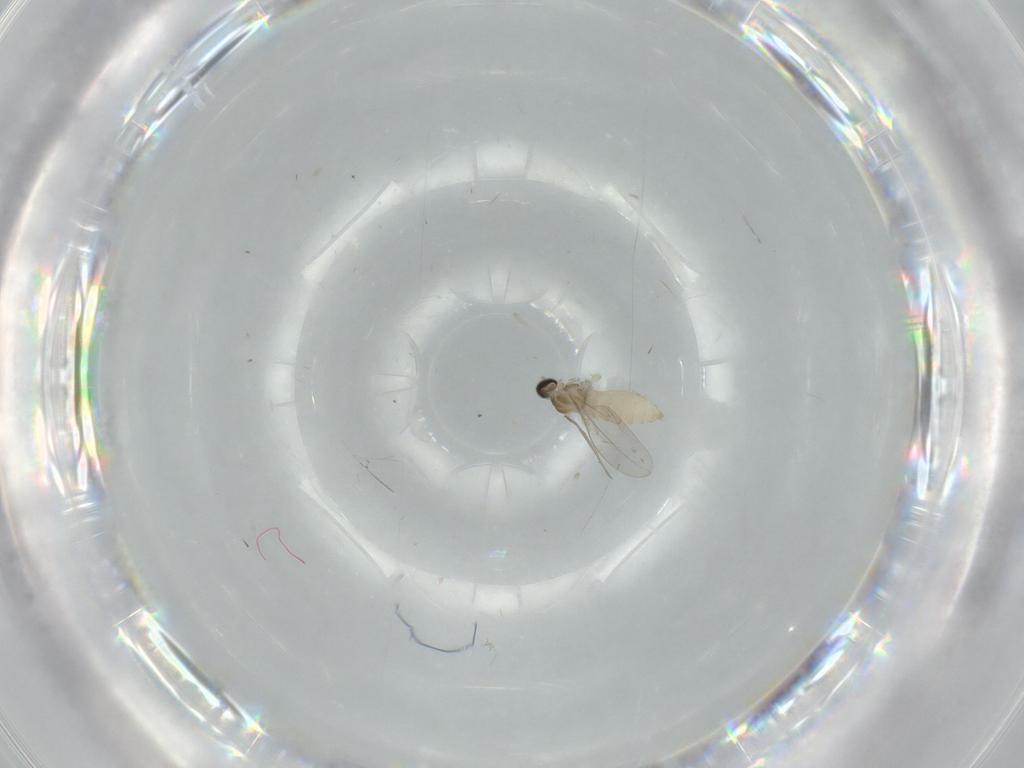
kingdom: Animalia
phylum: Arthropoda
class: Insecta
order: Diptera
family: Cecidomyiidae
